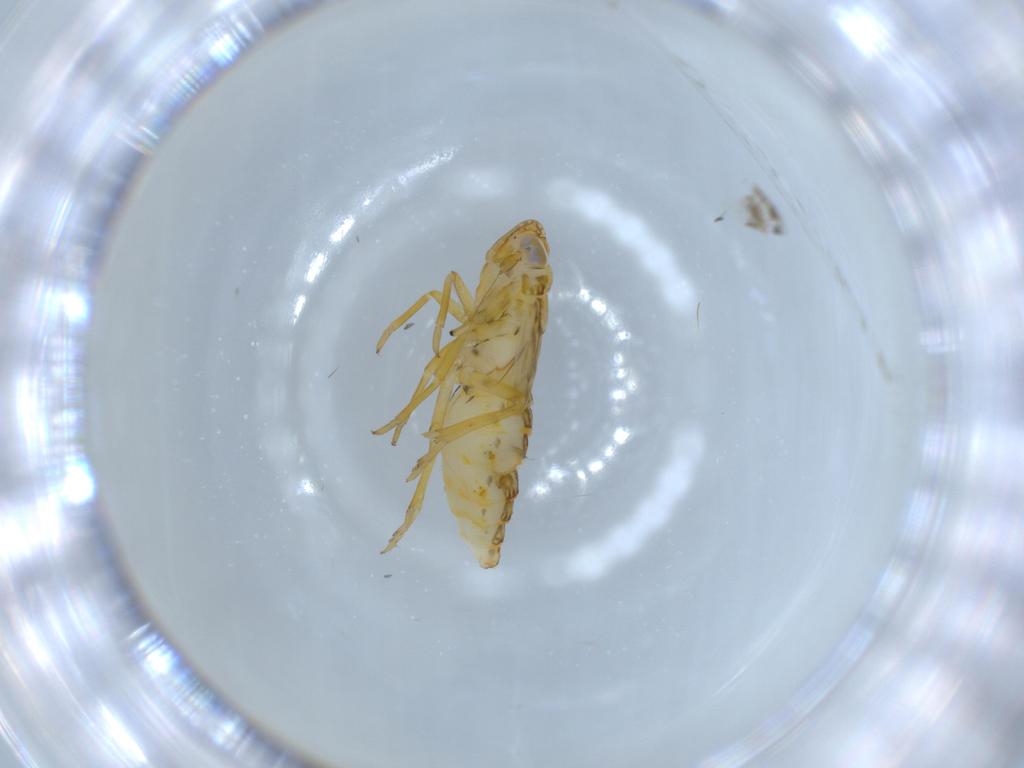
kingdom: Animalia
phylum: Arthropoda
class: Insecta
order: Hemiptera
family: Delphacidae
